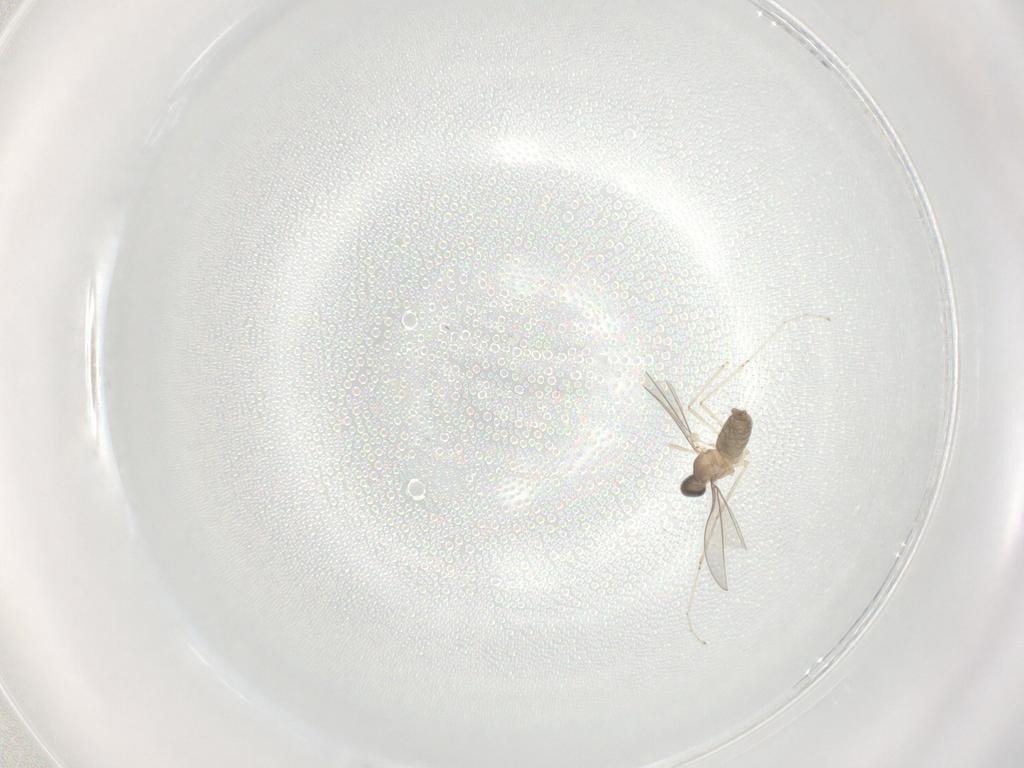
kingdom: Animalia
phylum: Arthropoda
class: Insecta
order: Diptera
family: Cecidomyiidae
